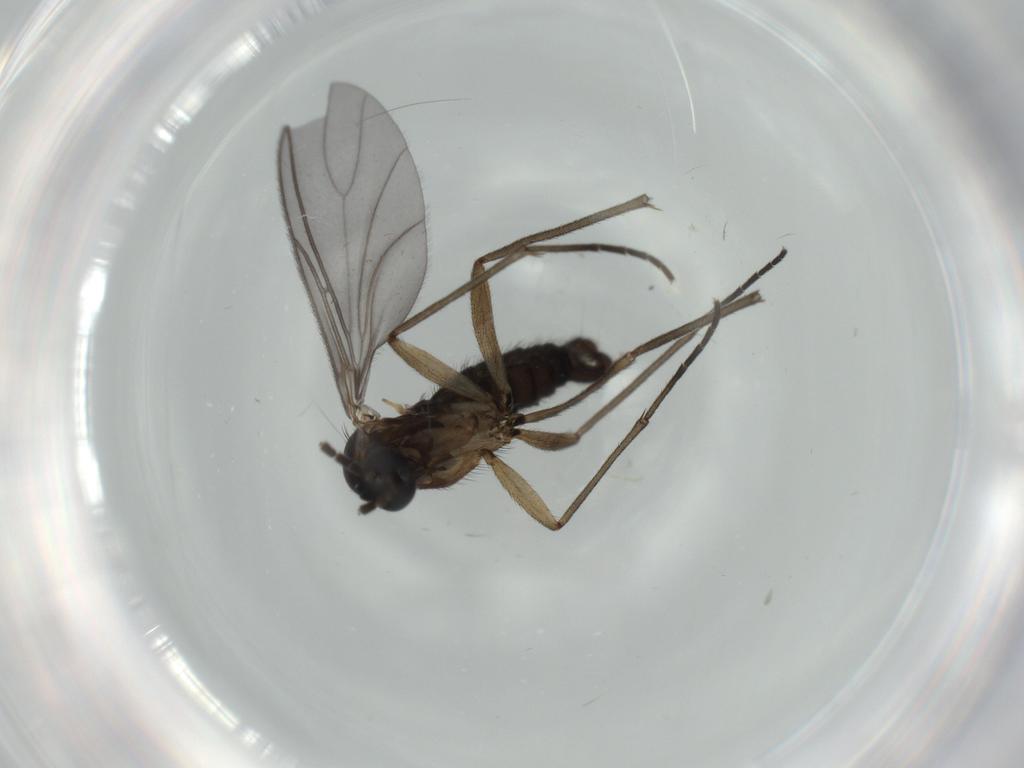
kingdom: Animalia
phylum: Arthropoda
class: Insecta
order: Diptera
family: Sciaridae
